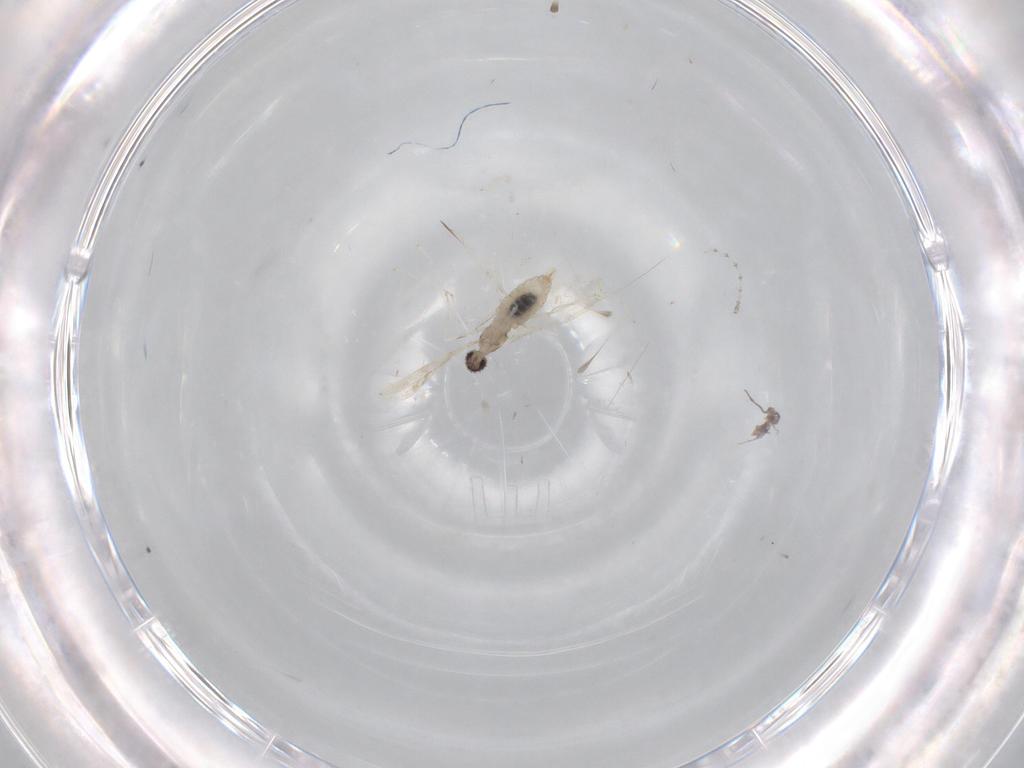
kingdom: Animalia
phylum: Arthropoda
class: Insecta
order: Diptera
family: Cecidomyiidae
